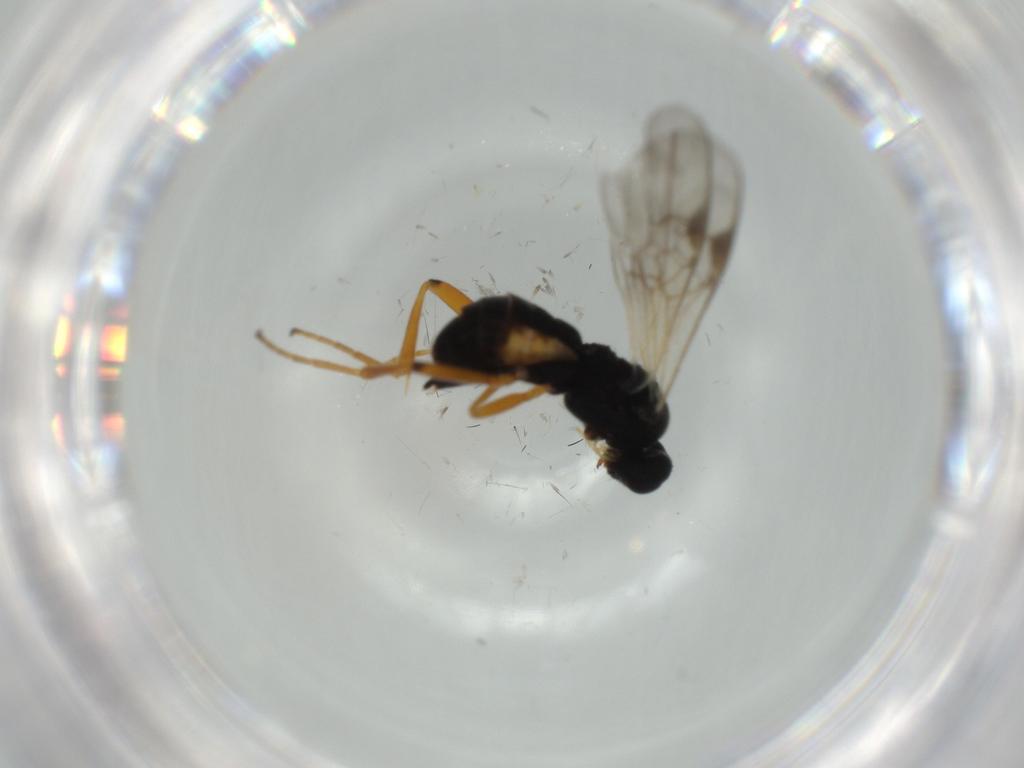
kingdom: Animalia
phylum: Arthropoda
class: Insecta
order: Hymenoptera
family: Braconidae
